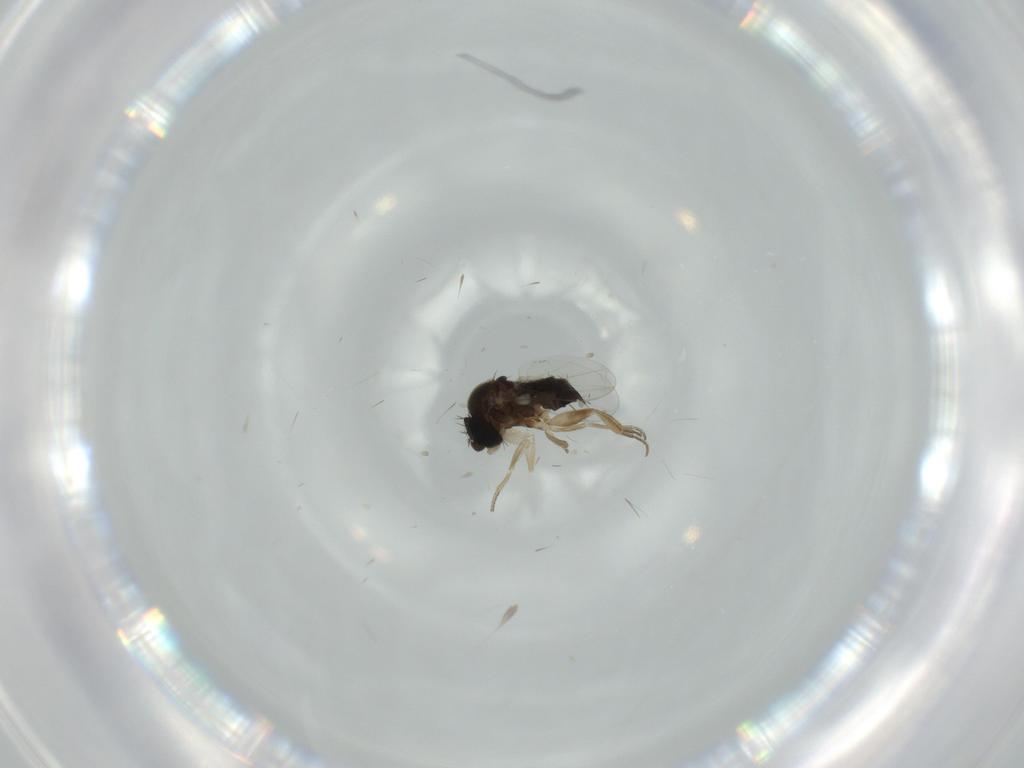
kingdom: Animalia
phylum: Arthropoda
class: Insecta
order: Diptera
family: Phoridae
